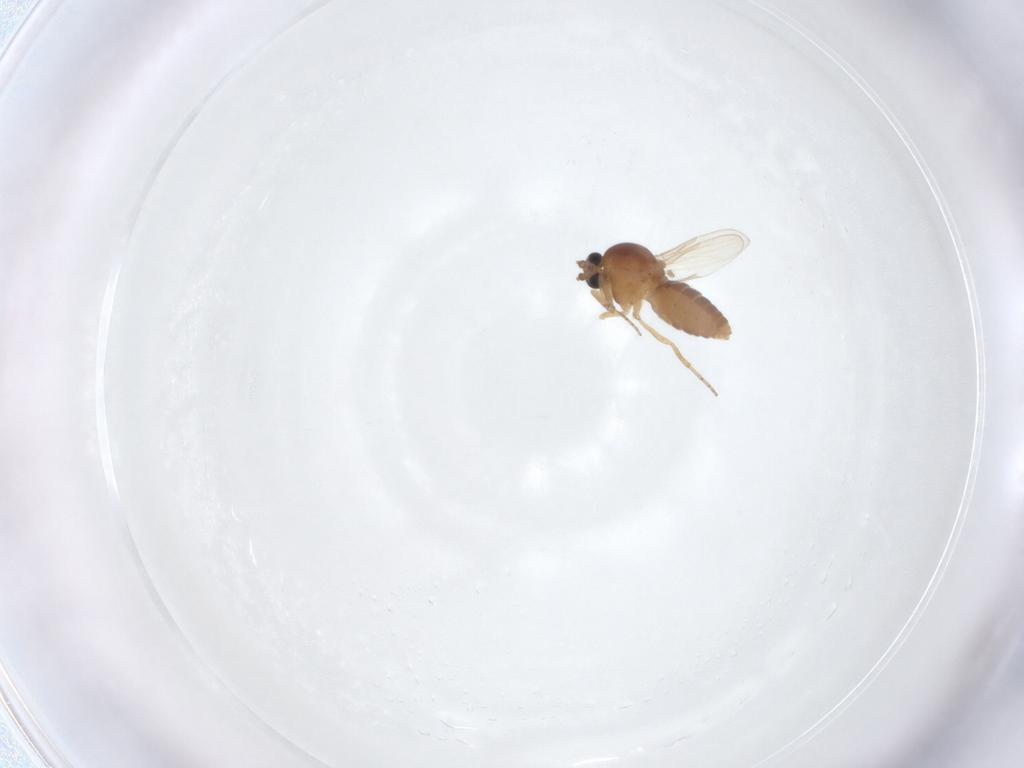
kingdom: Animalia
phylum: Arthropoda
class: Insecta
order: Diptera
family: Ceratopogonidae
